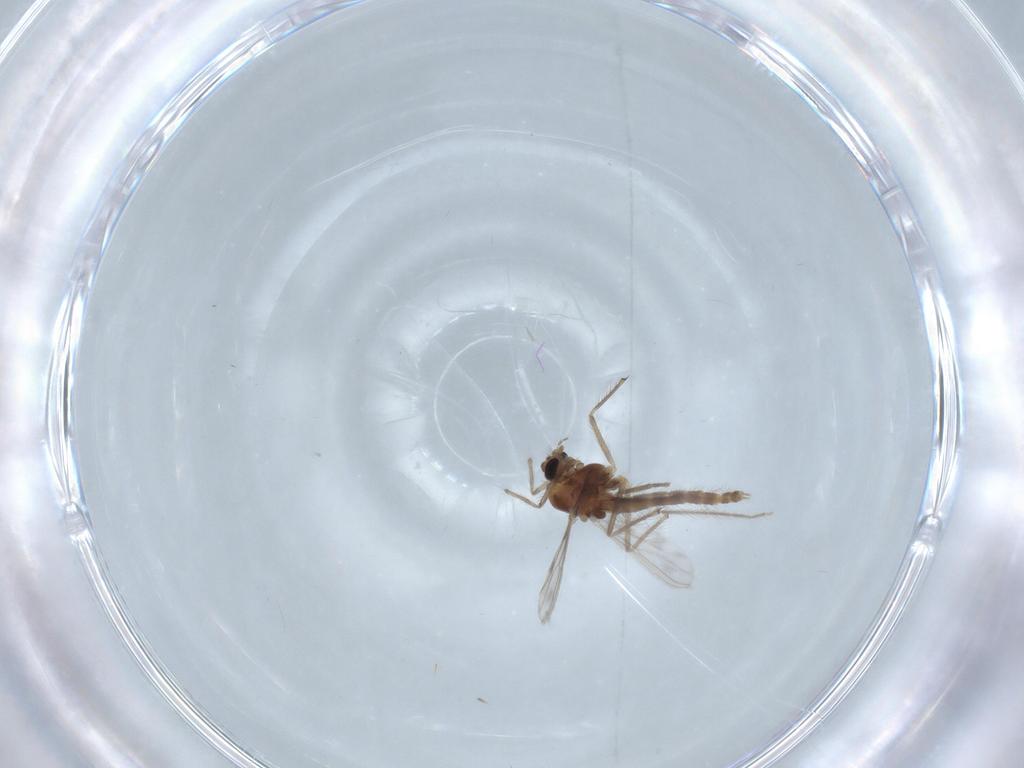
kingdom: Animalia
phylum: Arthropoda
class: Insecta
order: Diptera
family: Chironomidae
